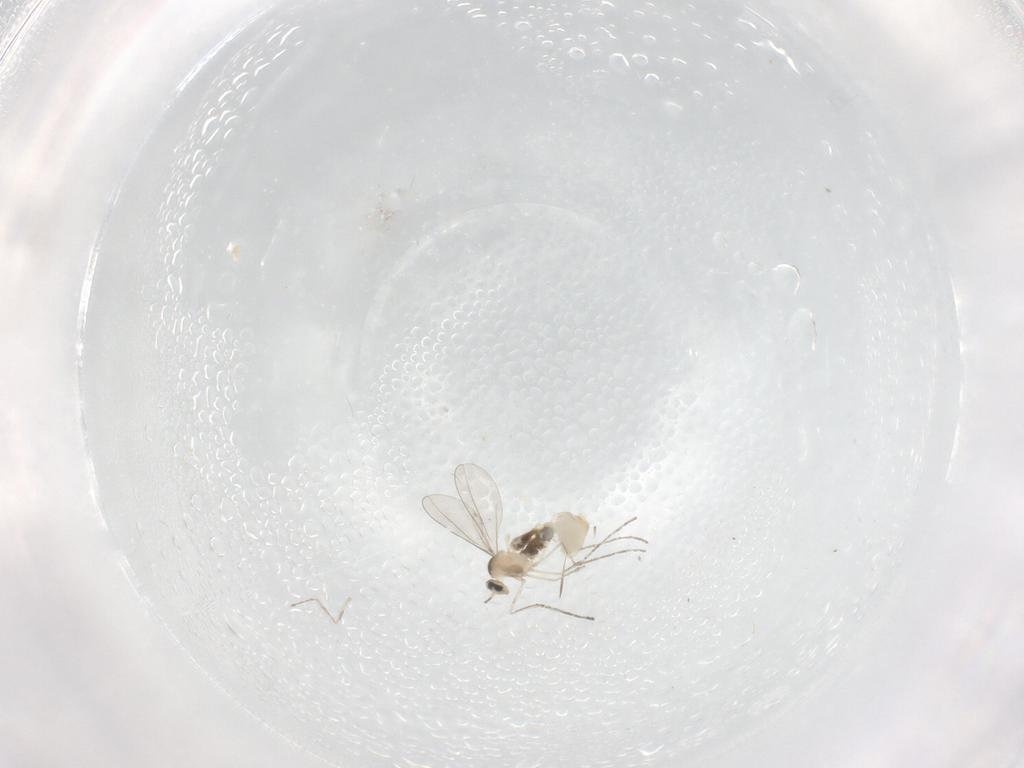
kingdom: Animalia
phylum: Arthropoda
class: Insecta
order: Diptera
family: Cecidomyiidae
